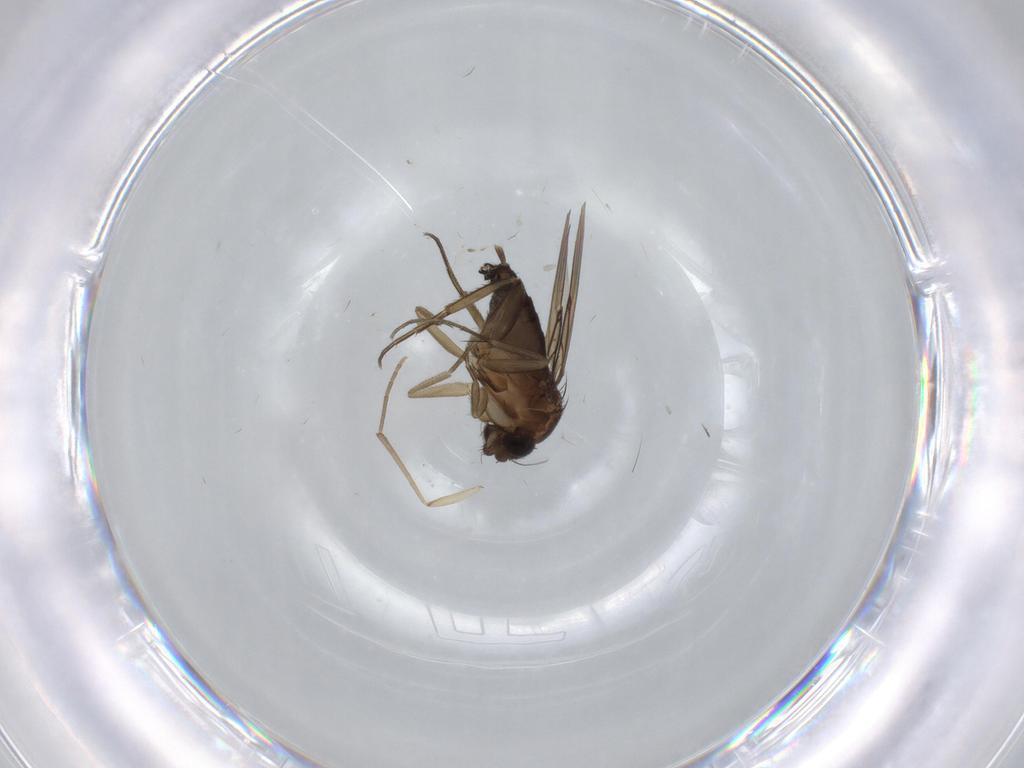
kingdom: Animalia
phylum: Arthropoda
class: Insecta
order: Diptera
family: Phoridae
